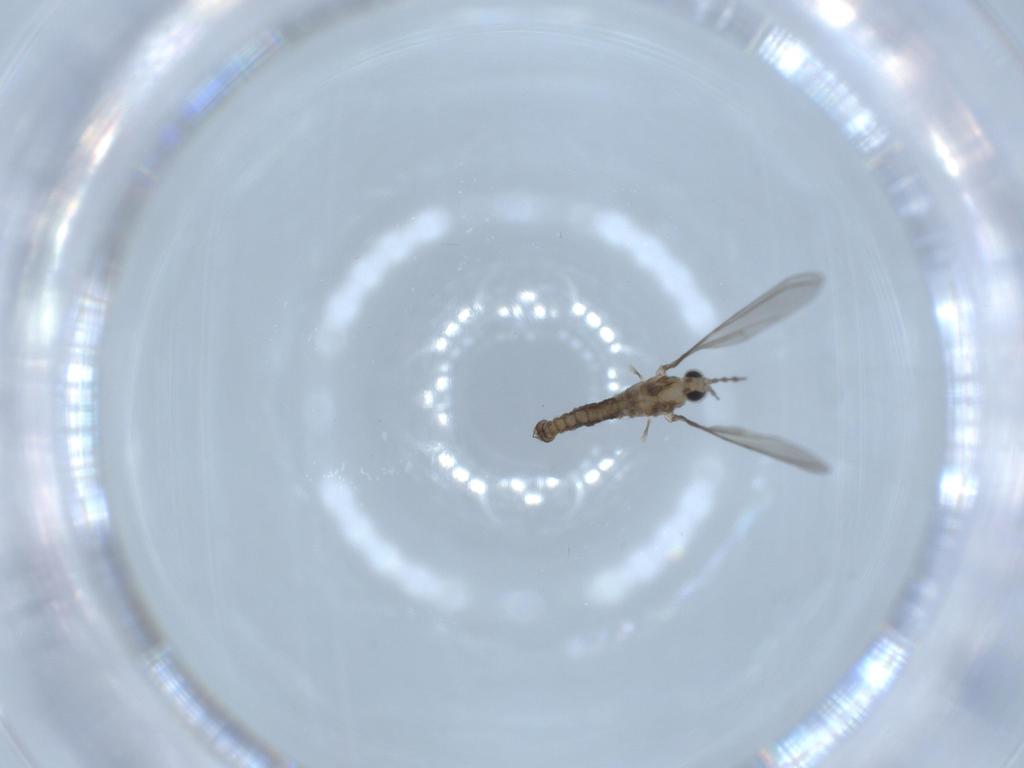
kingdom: Animalia
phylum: Arthropoda
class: Insecta
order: Diptera
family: Cecidomyiidae
